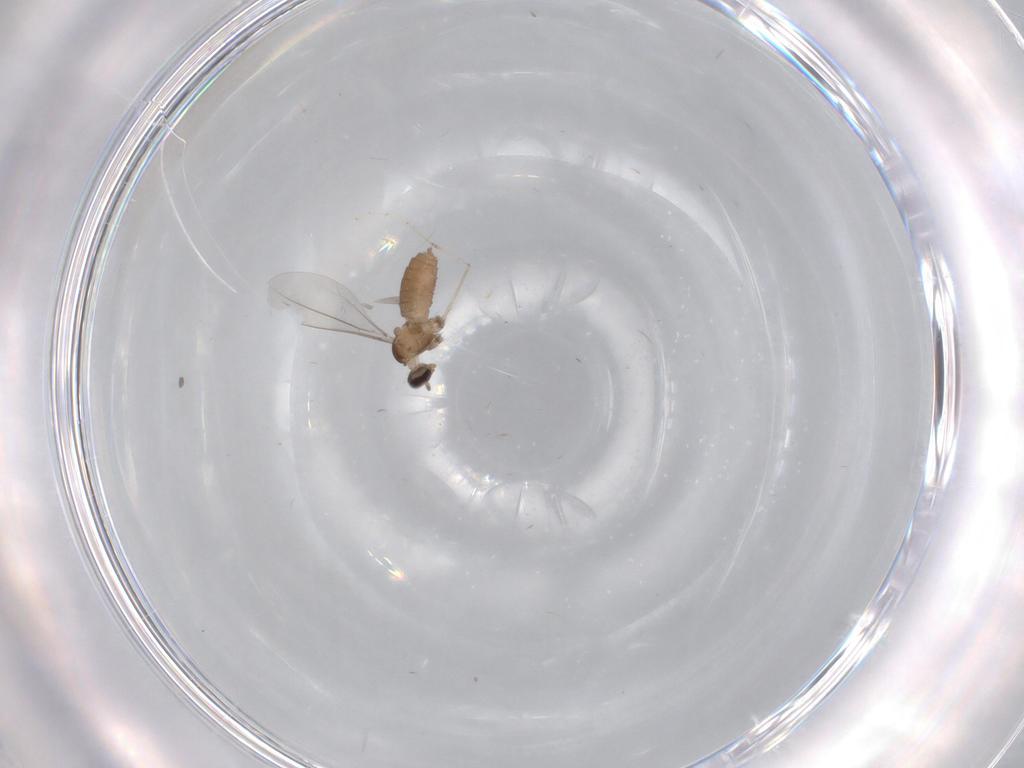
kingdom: Animalia
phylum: Arthropoda
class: Insecta
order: Diptera
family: Cecidomyiidae
